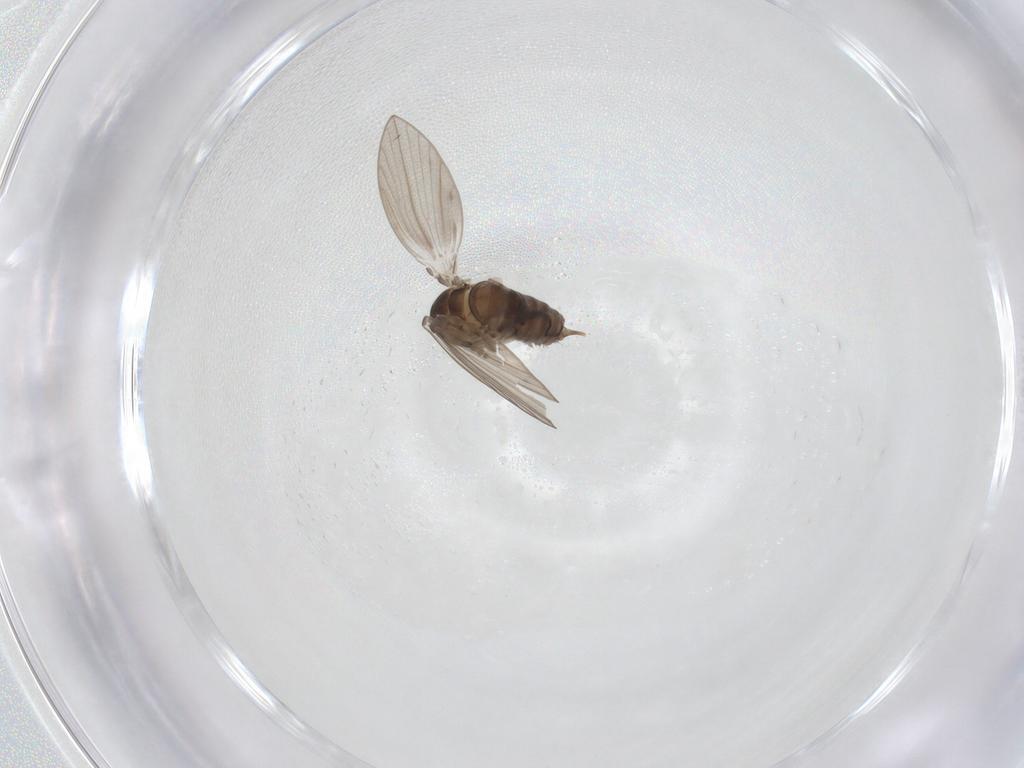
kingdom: Animalia
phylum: Arthropoda
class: Insecta
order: Diptera
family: Psychodidae
